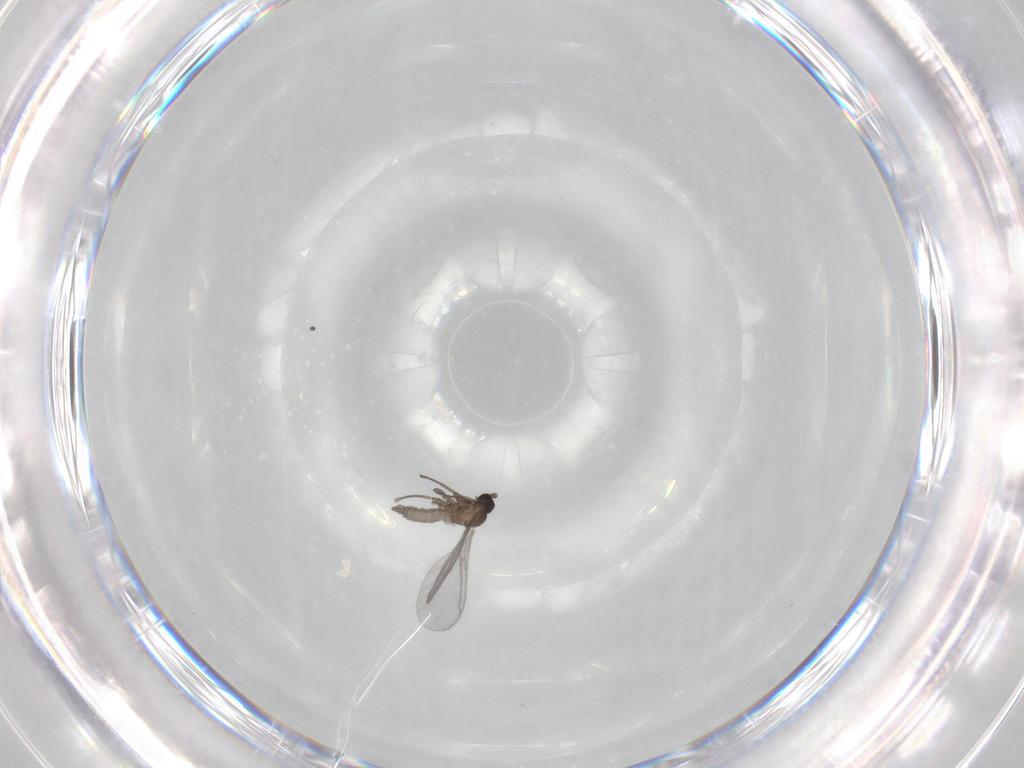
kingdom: Animalia
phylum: Arthropoda
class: Insecta
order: Diptera
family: Sciaridae
